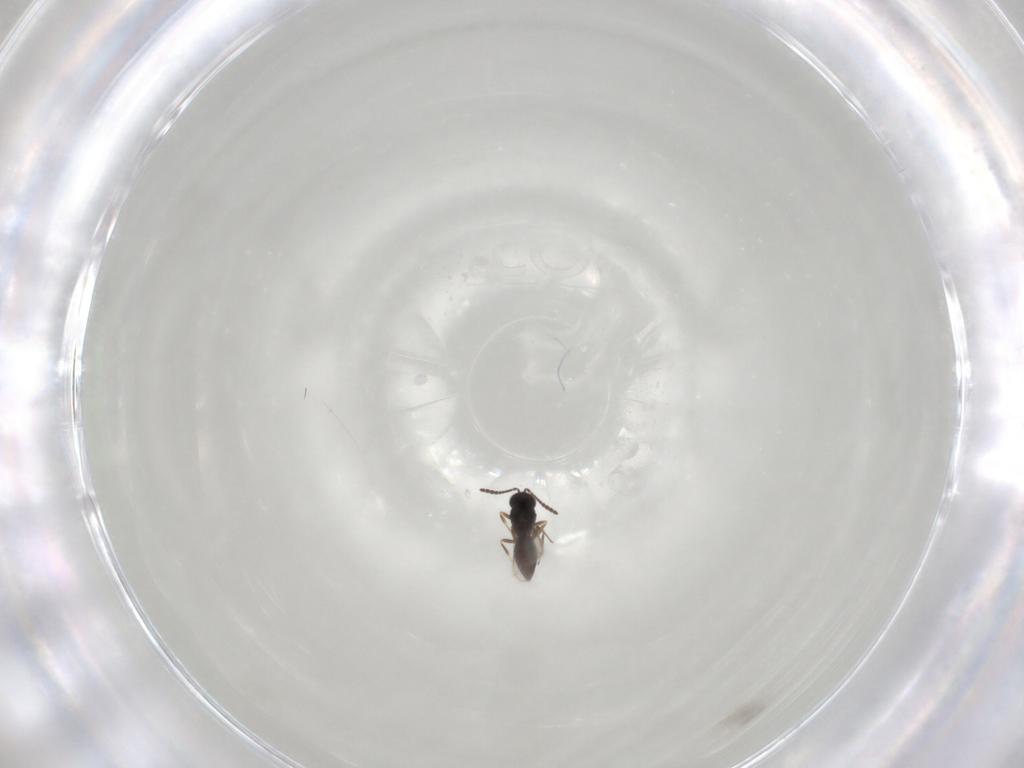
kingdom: Animalia
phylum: Arthropoda
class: Insecta
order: Hymenoptera
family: Scelionidae
